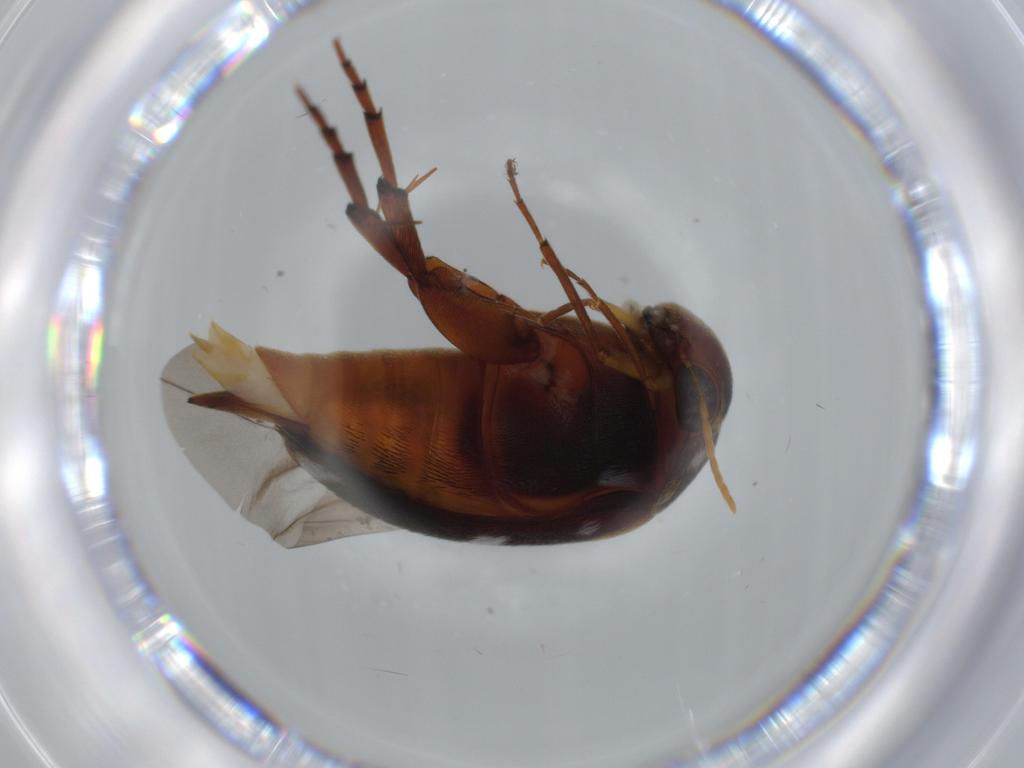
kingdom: Animalia
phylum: Arthropoda
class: Insecta
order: Coleoptera
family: Mordellidae
